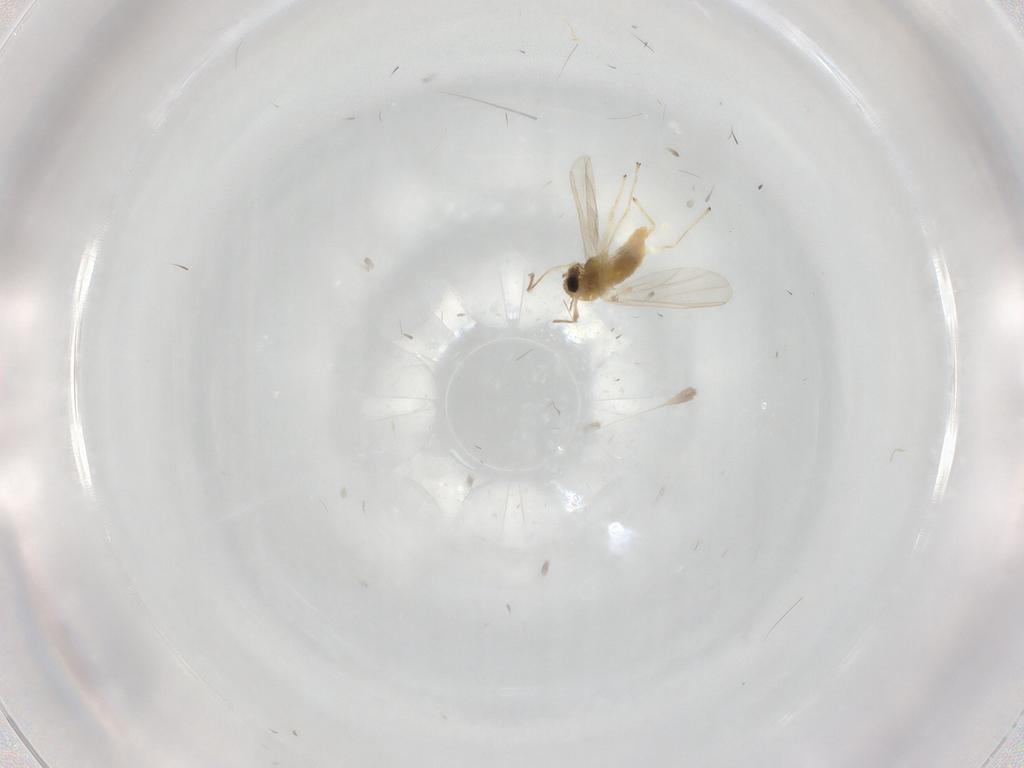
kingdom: Animalia
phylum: Arthropoda
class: Insecta
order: Diptera
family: Chironomidae
